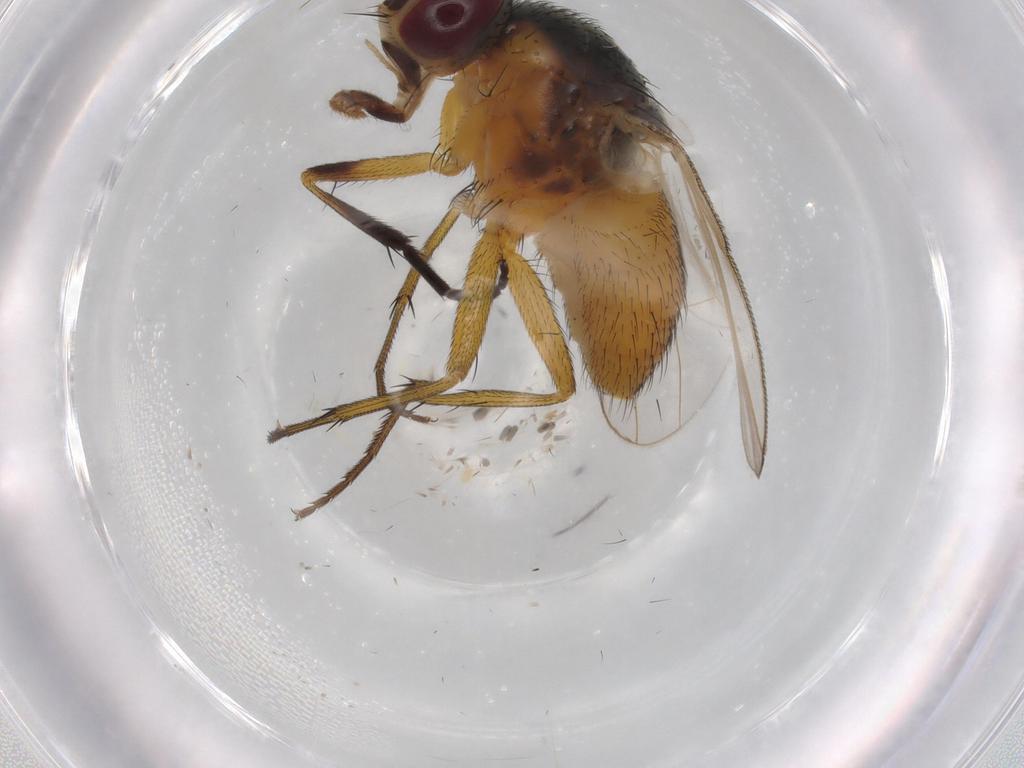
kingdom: Animalia
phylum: Arthropoda
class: Insecta
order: Diptera
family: Muscidae
